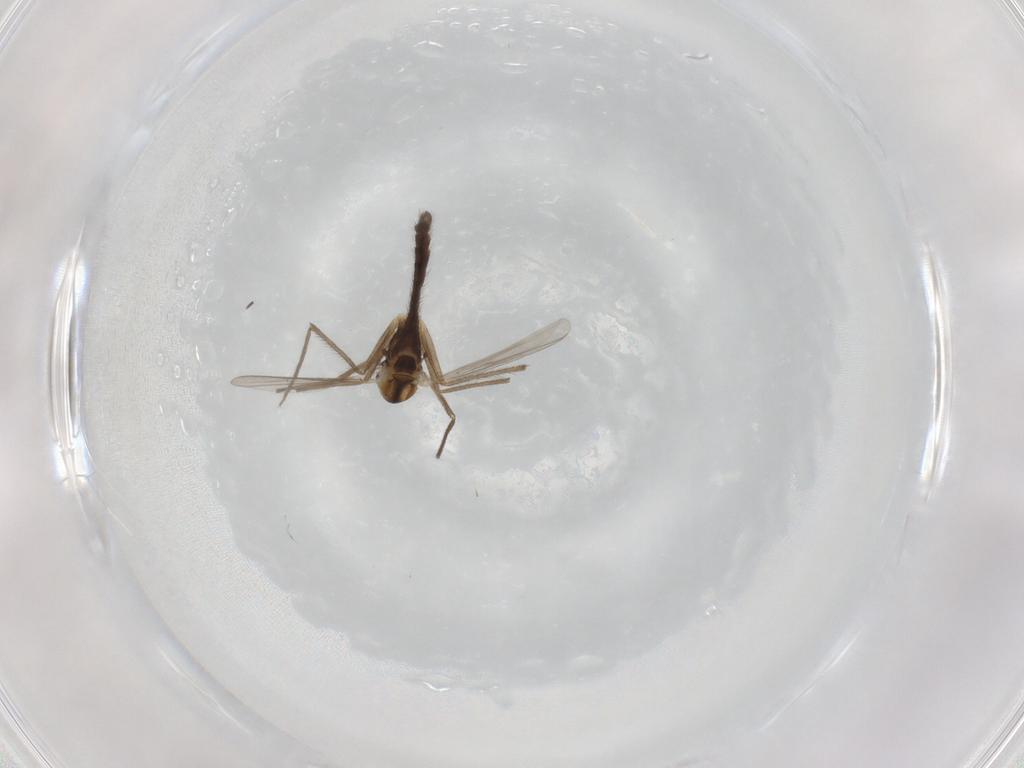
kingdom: Animalia
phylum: Arthropoda
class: Insecta
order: Diptera
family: Chironomidae
